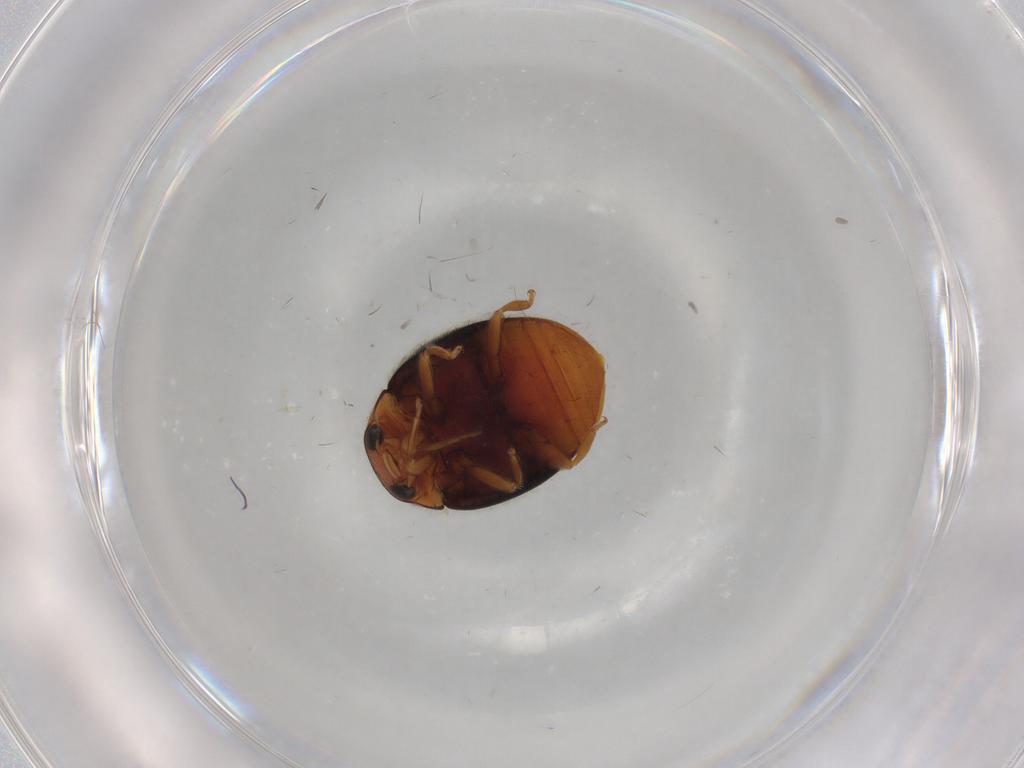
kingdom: Animalia
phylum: Arthropoda
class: Insecta
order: Coleoptera
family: Coccinellidae
